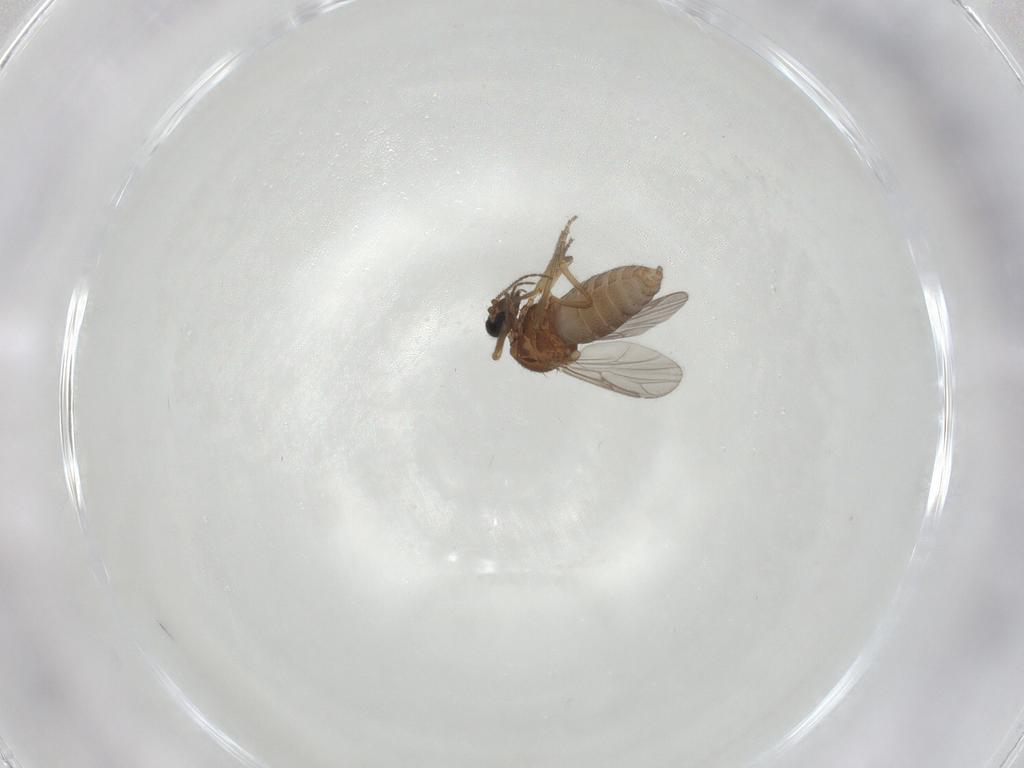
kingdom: Animalia
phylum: Arthropoda
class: Insecta
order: Diptera
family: Ceratopogonidae
